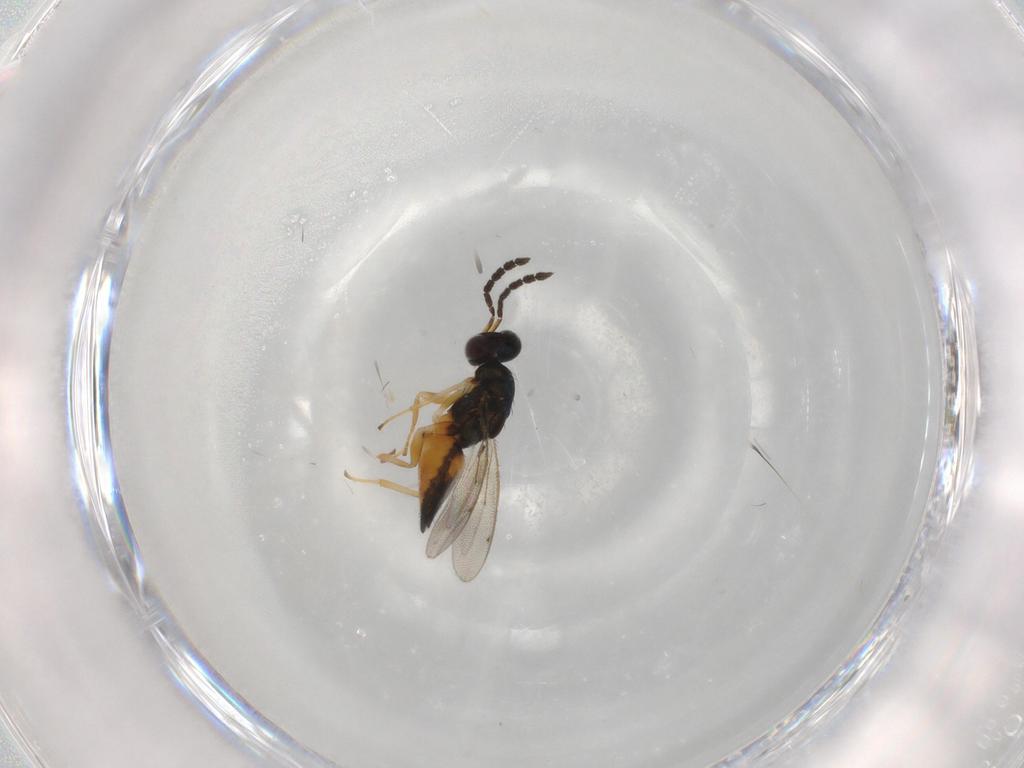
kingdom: Animalia
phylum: Arthropoda
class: Insecta
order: Hymenoptera
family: Eulophidae
